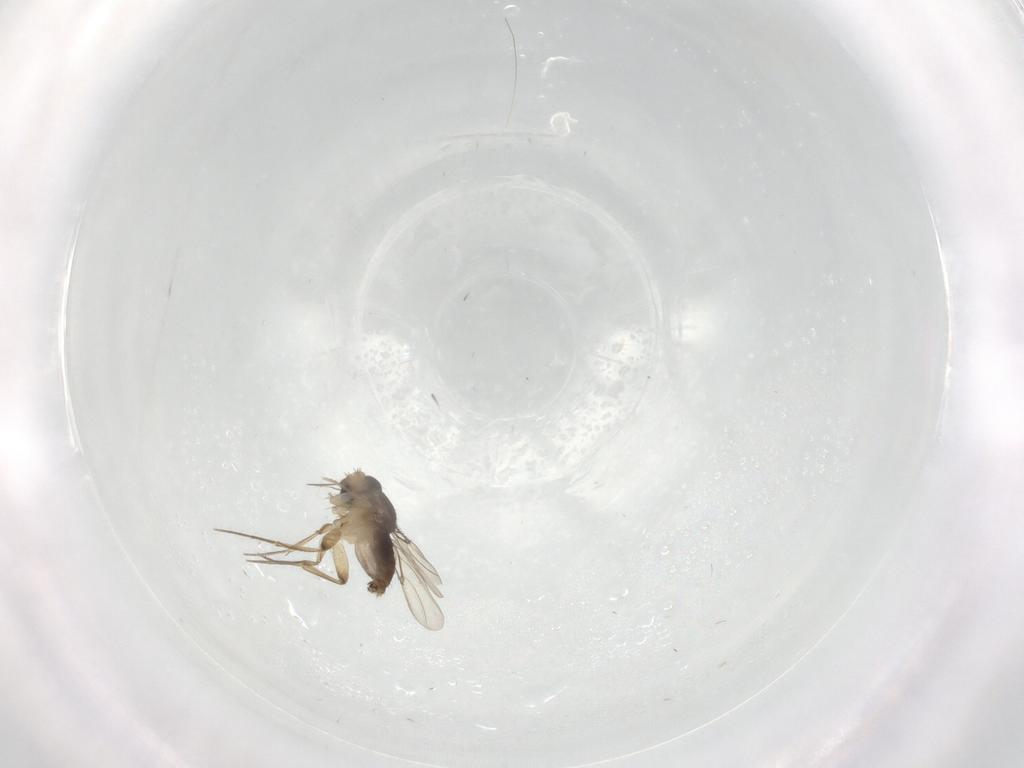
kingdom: Animalia
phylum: Arthropoda
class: Insecta
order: Diptera
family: Phoridae
